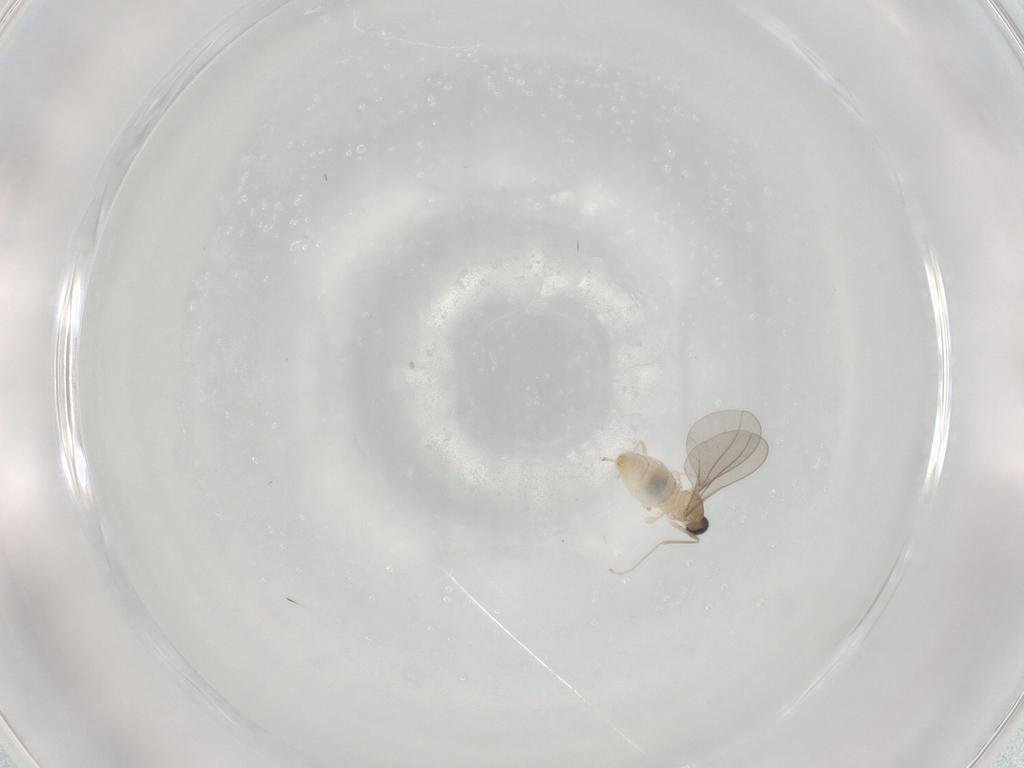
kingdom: Animalia
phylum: Arthropoda
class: Insecta
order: Diptera
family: Cecidomyiidae
